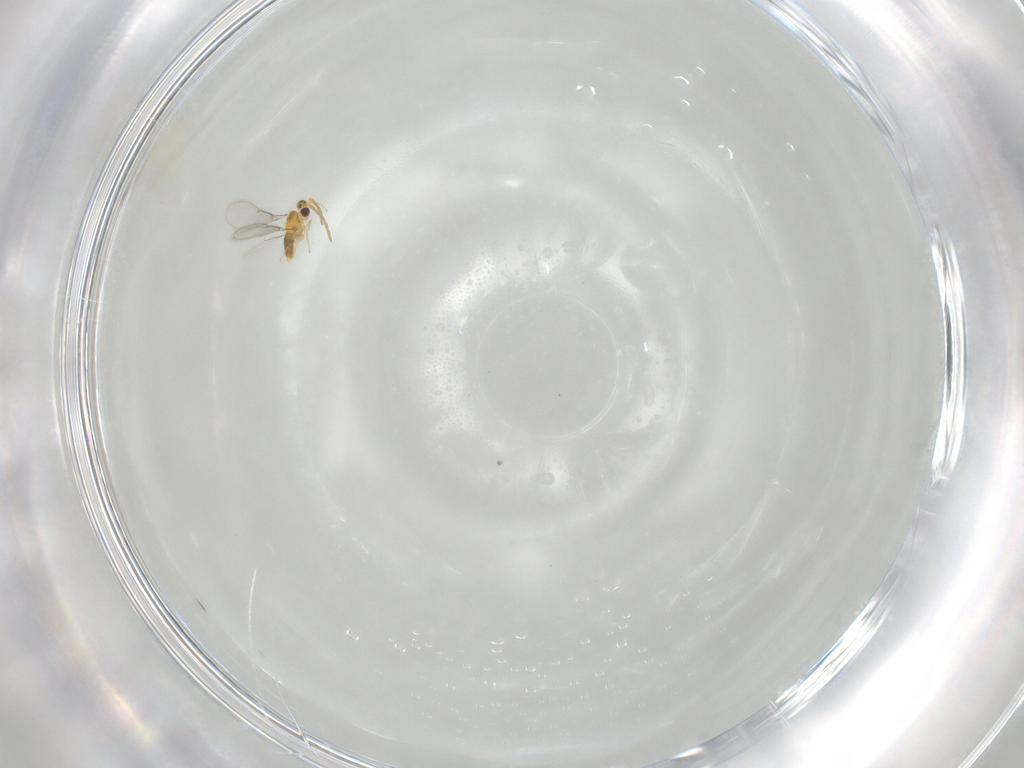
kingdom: Animalia
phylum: Arthropoda
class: Insecta
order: Hymenoptera
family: Aphelinidae
